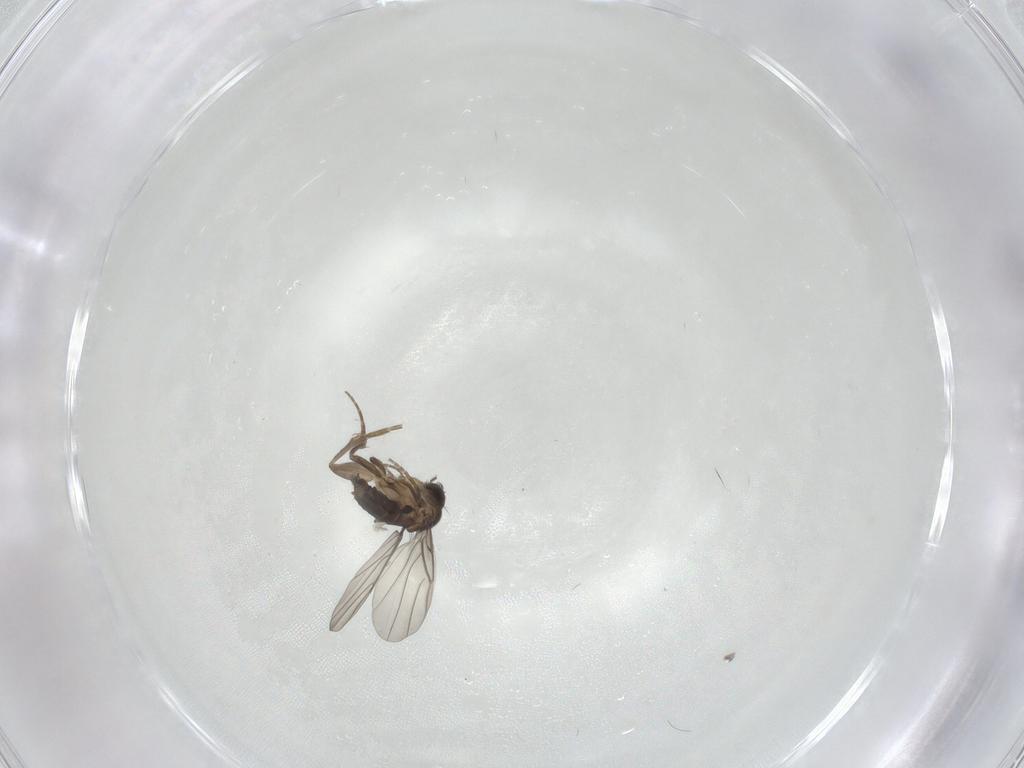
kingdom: Animalia
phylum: Arthropoda
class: Insecta
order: Diptera
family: Phoridae
